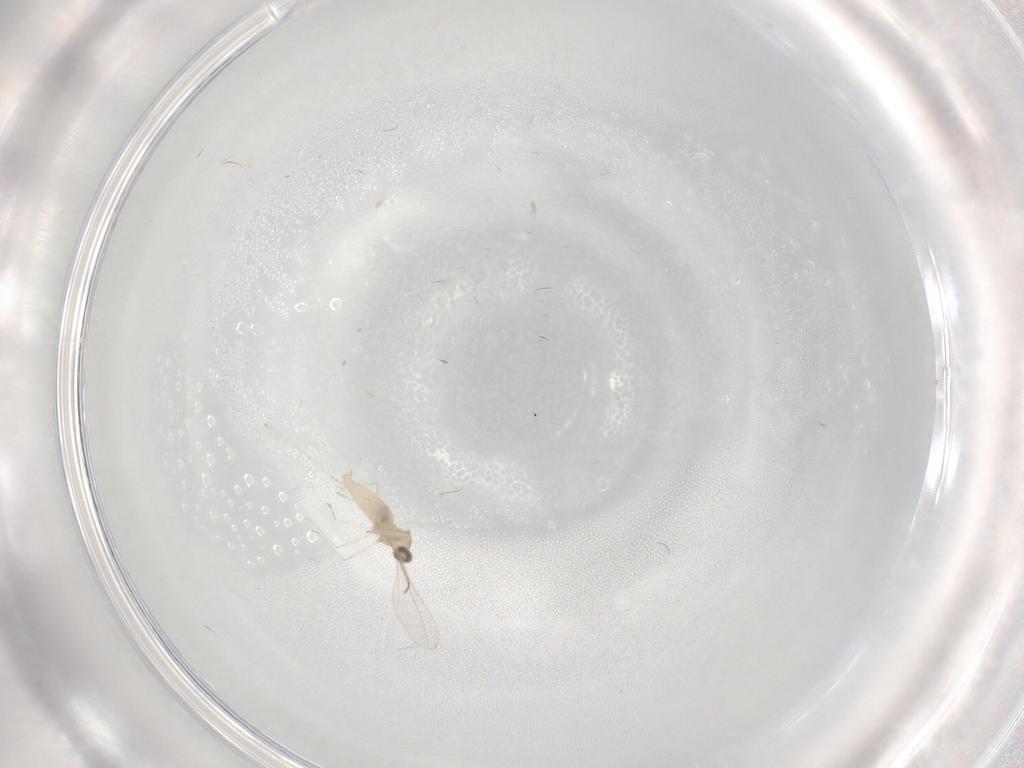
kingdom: Animalia
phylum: Arthropoda
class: Insecta
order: Diptera
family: Cecidomyiidae
